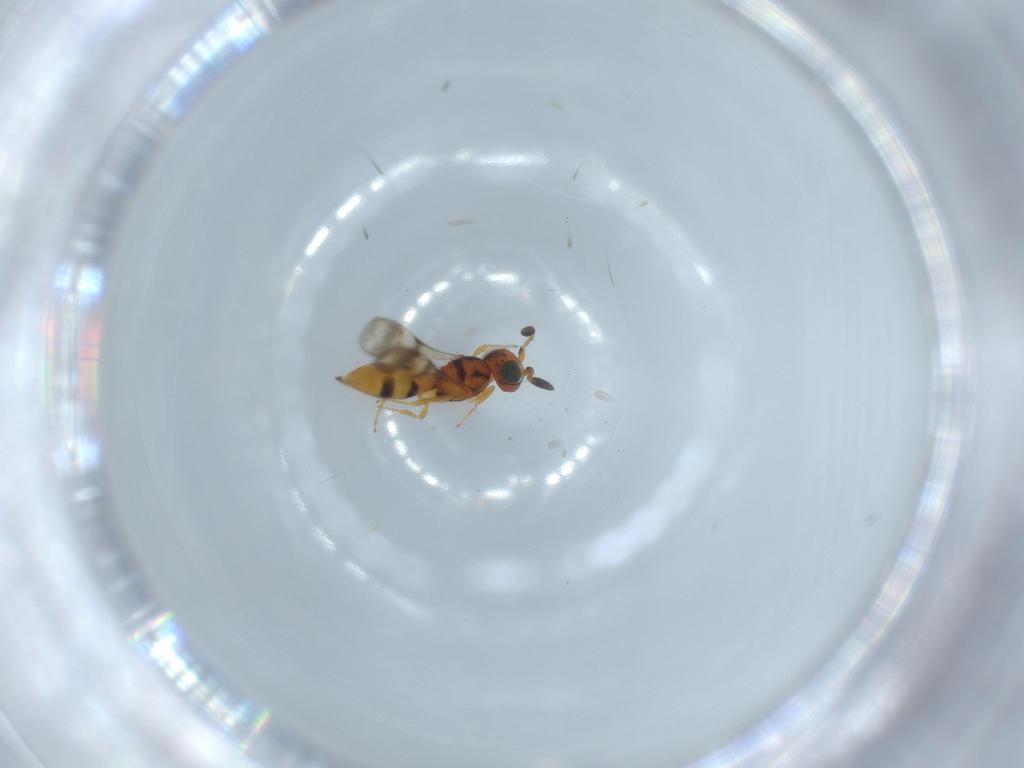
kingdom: Animalia
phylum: Arthropoda
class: Insecta
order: Hymenoptera
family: Scelionidae
